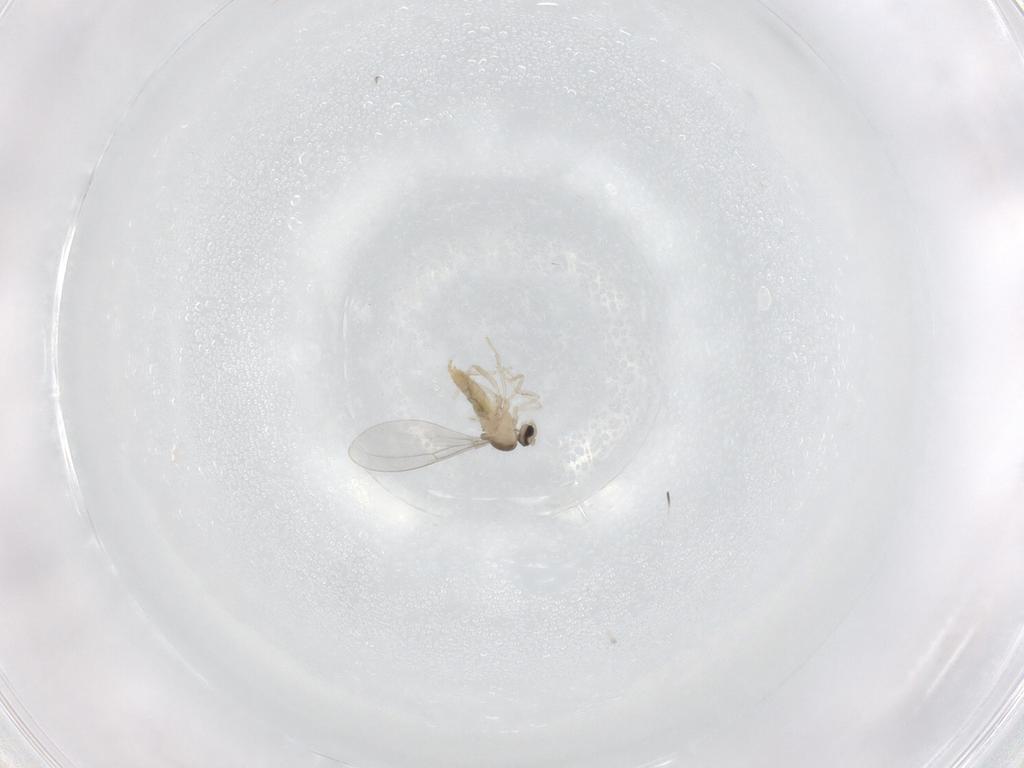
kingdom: Animalia
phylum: Arthropoda
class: Insecta
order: Diptera
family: Cecidomyiidae
